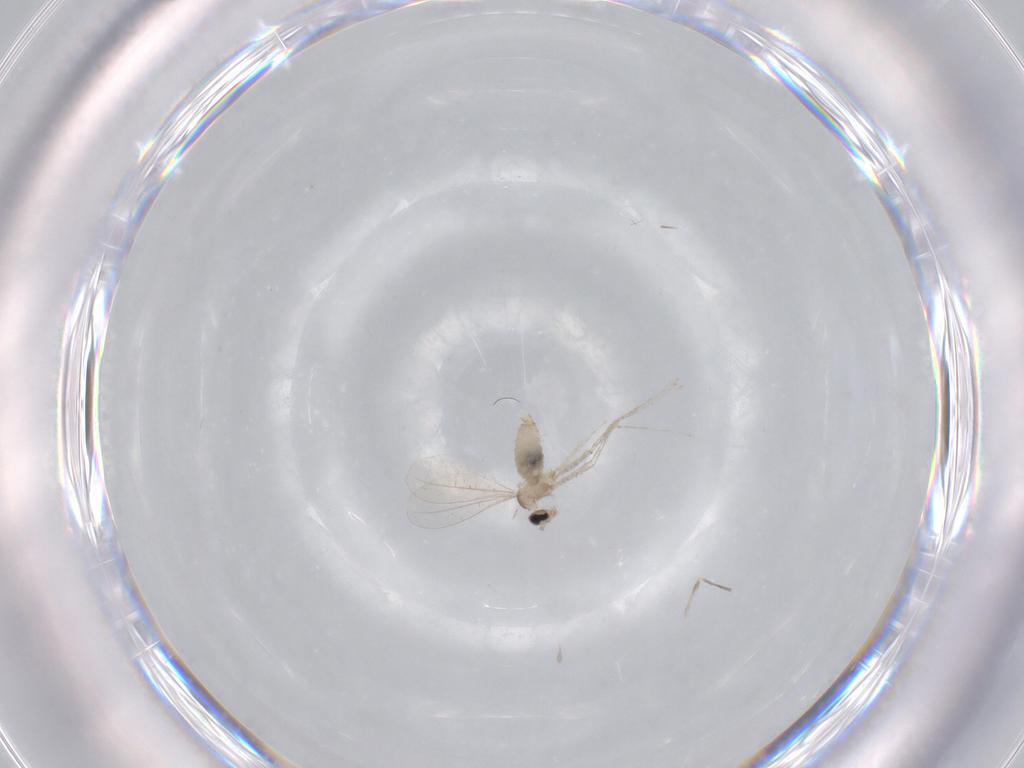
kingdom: Animalia
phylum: Arthropoda
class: Insecta
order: Diptera
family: Chironomidae
